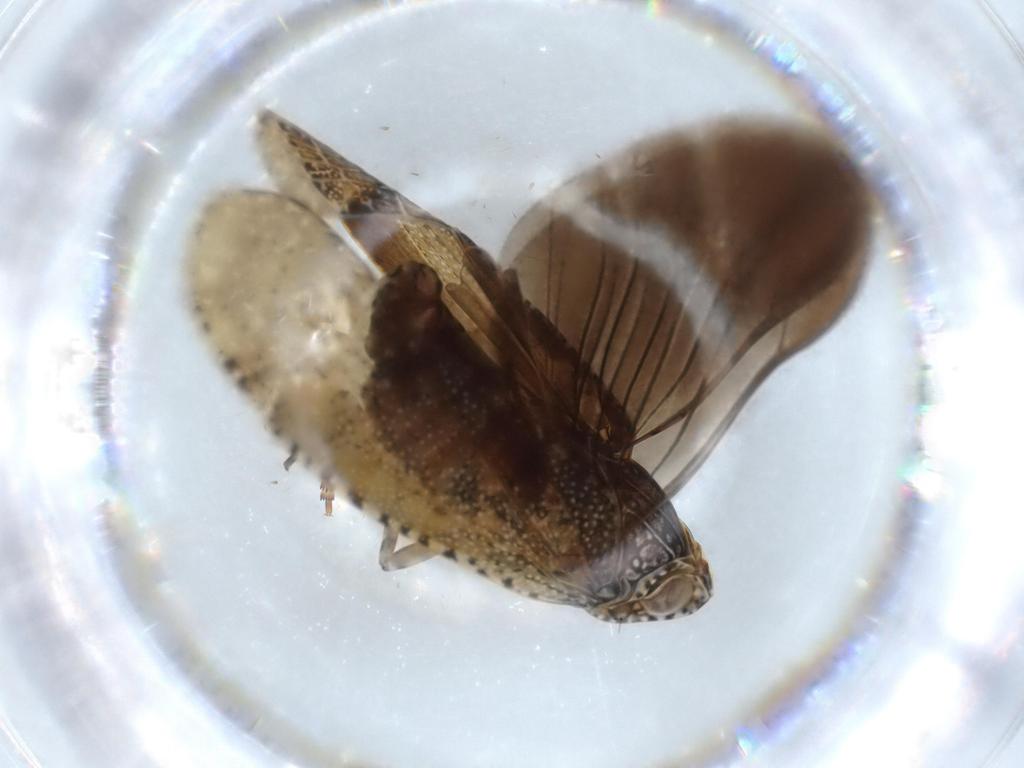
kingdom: Animalia
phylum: Arthropoda
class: Insecta
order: Hemiptera
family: Achilidae
